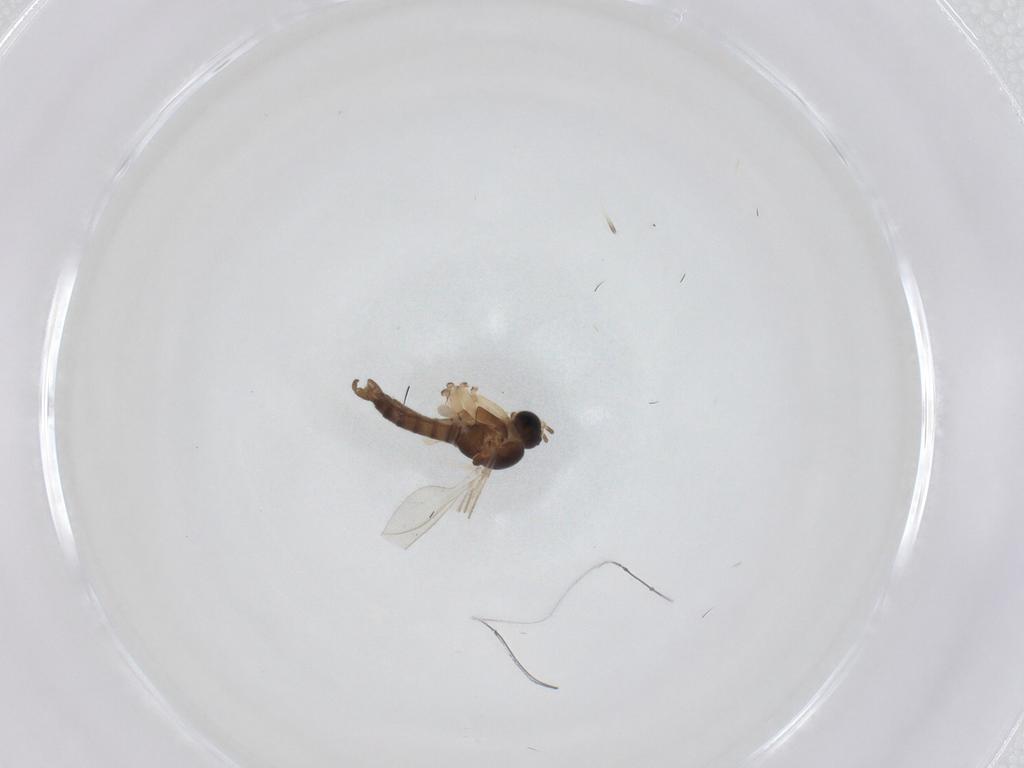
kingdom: Animalia
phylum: Arthropoda
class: Insecta
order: Diptera
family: Sciaridae
